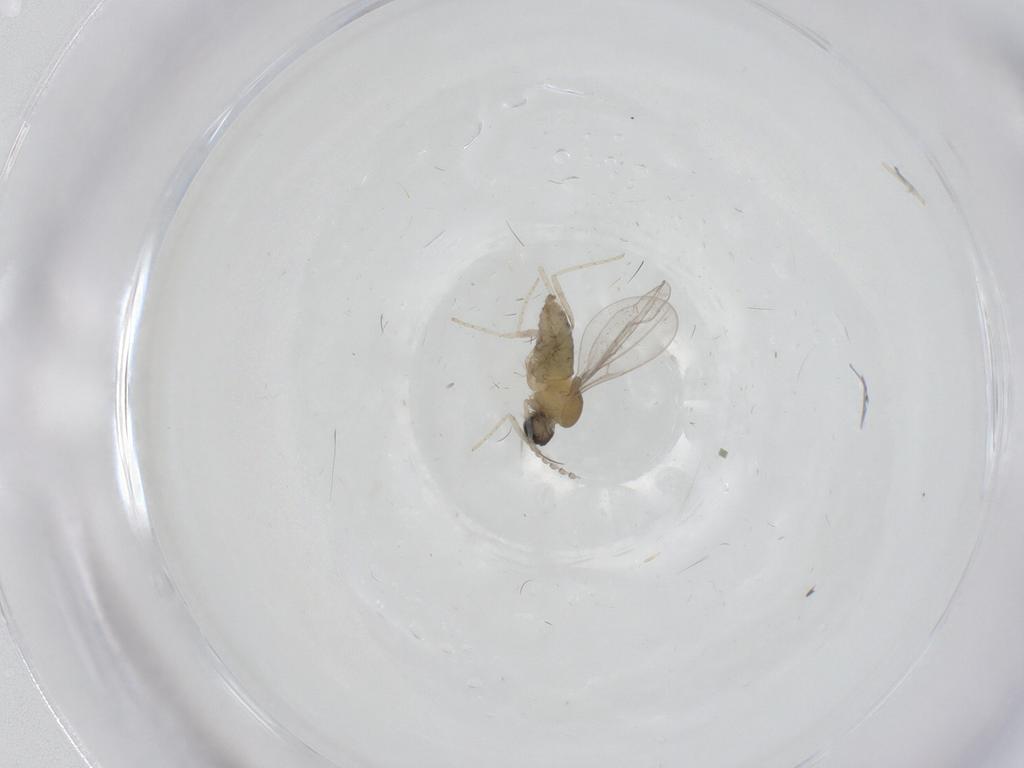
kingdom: Animalia
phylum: Arthropoda
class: Insecta
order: Diptera
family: Cecidomyiidae
